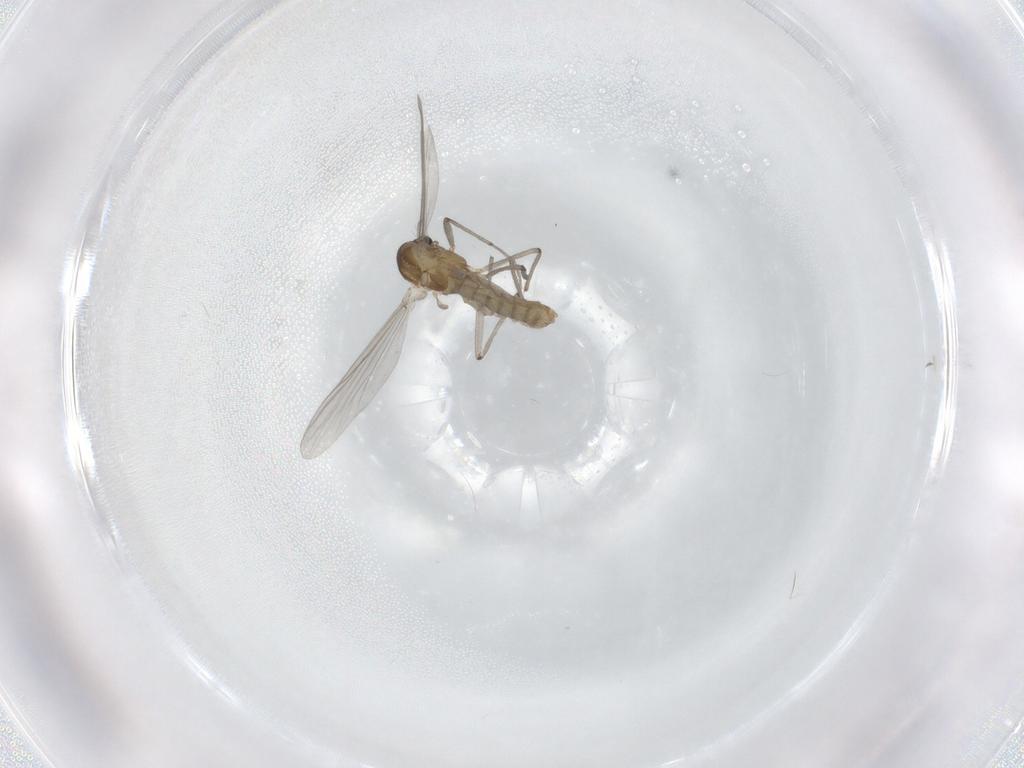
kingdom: Animalia
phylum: Arthropoda
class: Insecta
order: Diptera
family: Chironomidae
